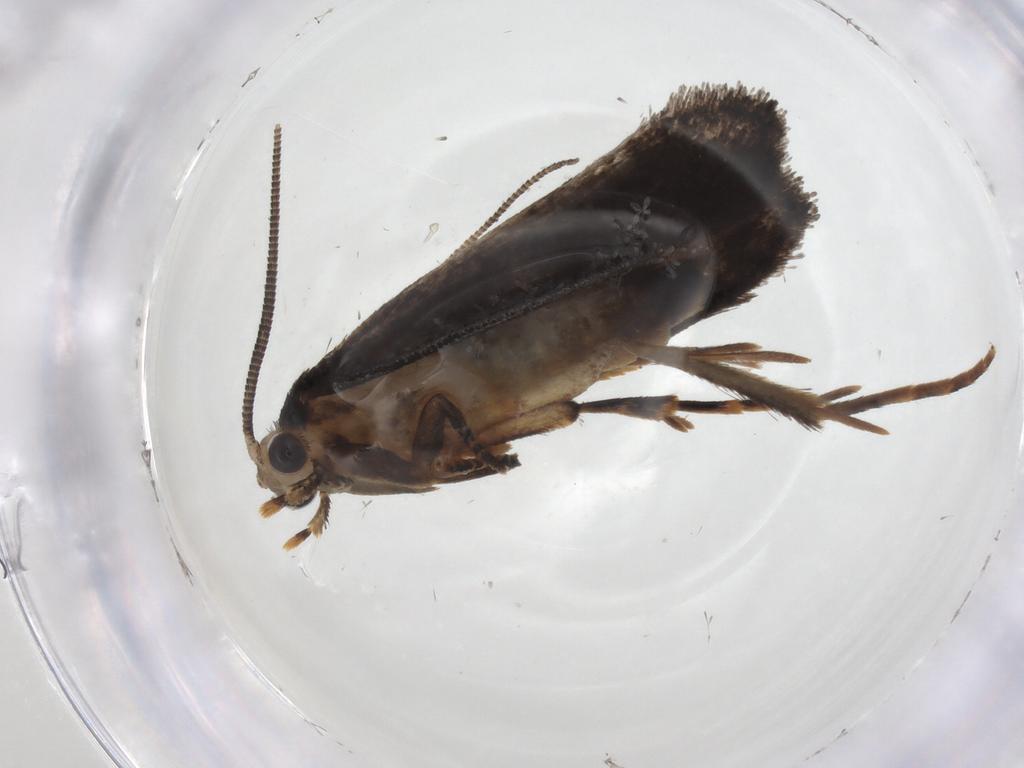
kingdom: Animalia
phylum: Arthropoda
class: Insecta
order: Lepidoptera
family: Tineidae
